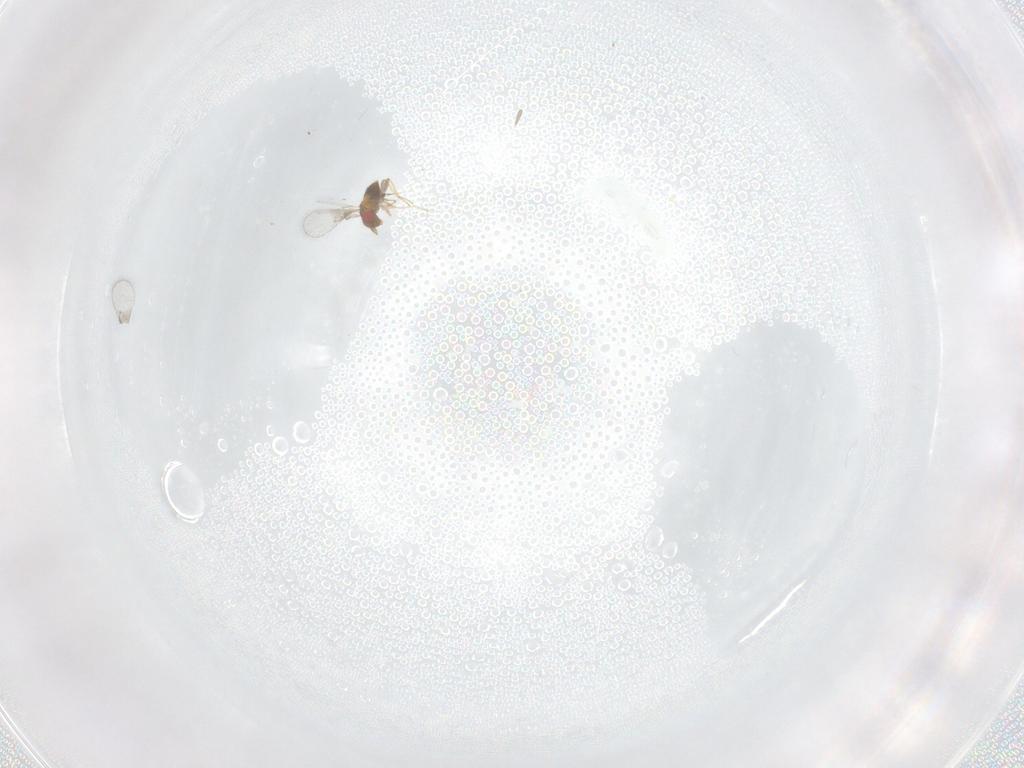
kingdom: Animalia
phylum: Arthropoda
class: Insecta
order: Hymenoptera
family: Trichogrammatidae
